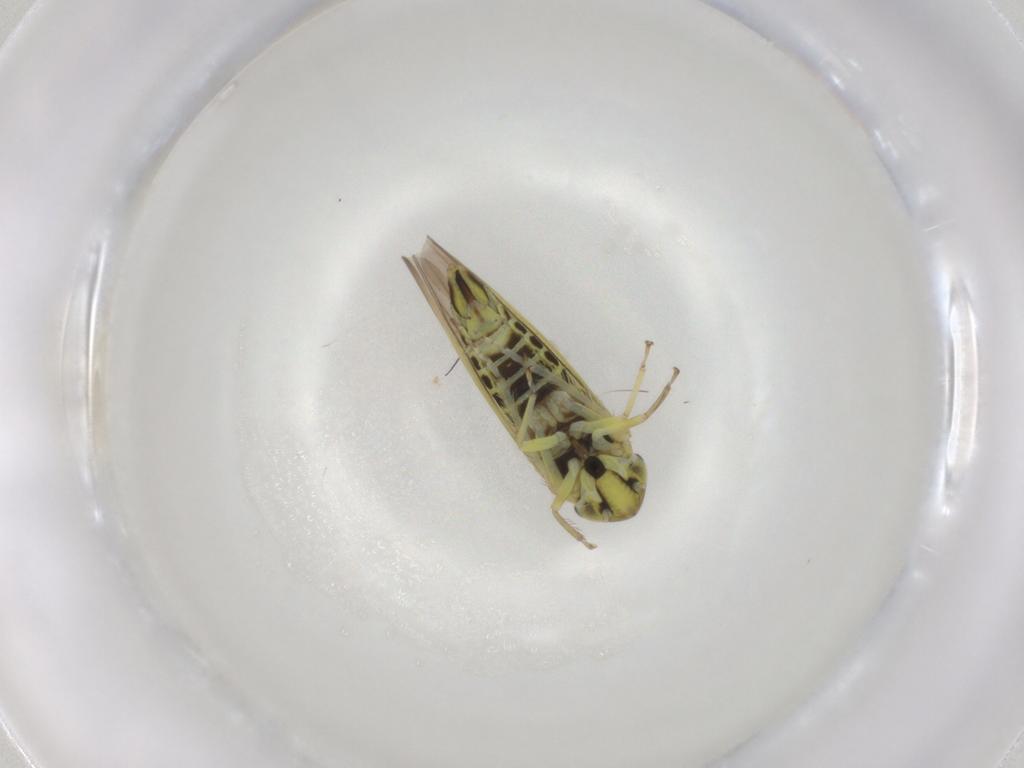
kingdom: Animalia
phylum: Arthropoda
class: Insecta
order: Hemiptera
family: Cicadellidae
